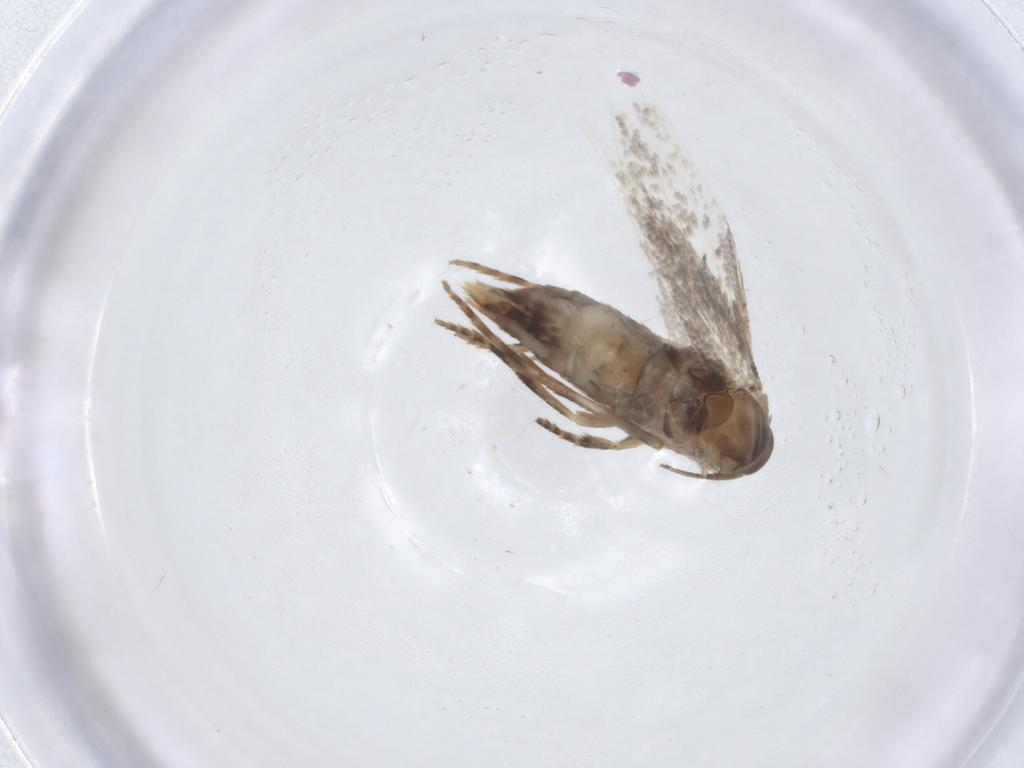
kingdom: Animalia
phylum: Arthropoda
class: Insecta
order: Lepidoptera
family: Elachistidae
